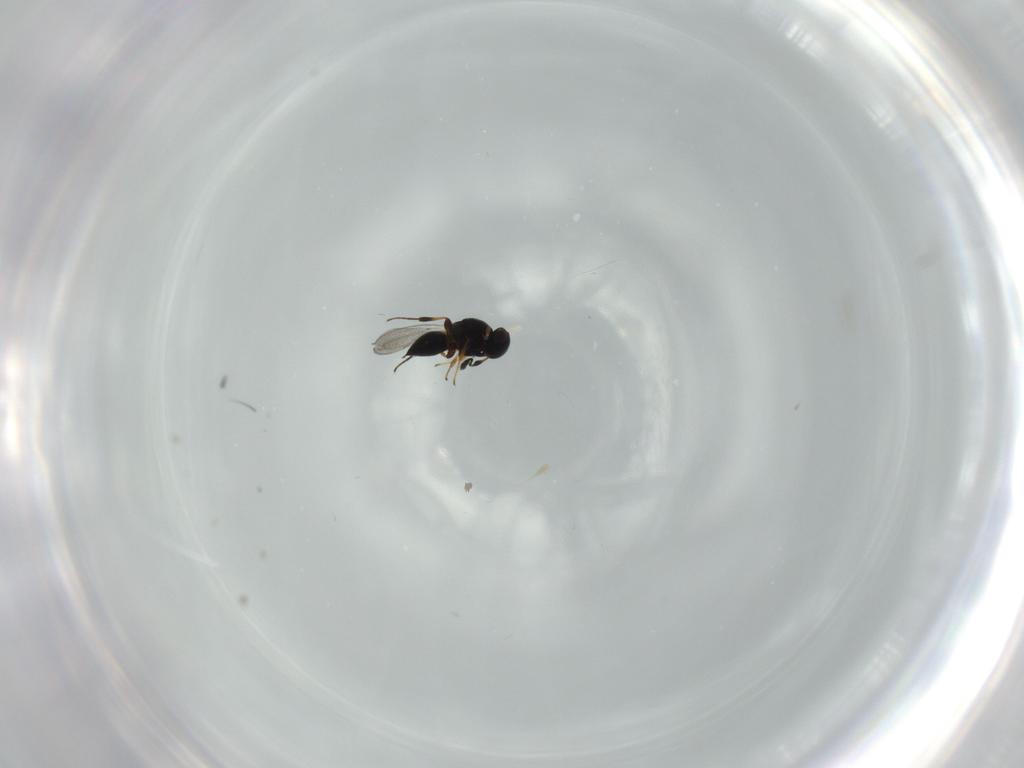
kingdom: Animalia
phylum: Arthropoda
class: Insecta
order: Hymenoptera
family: Platygastridae
